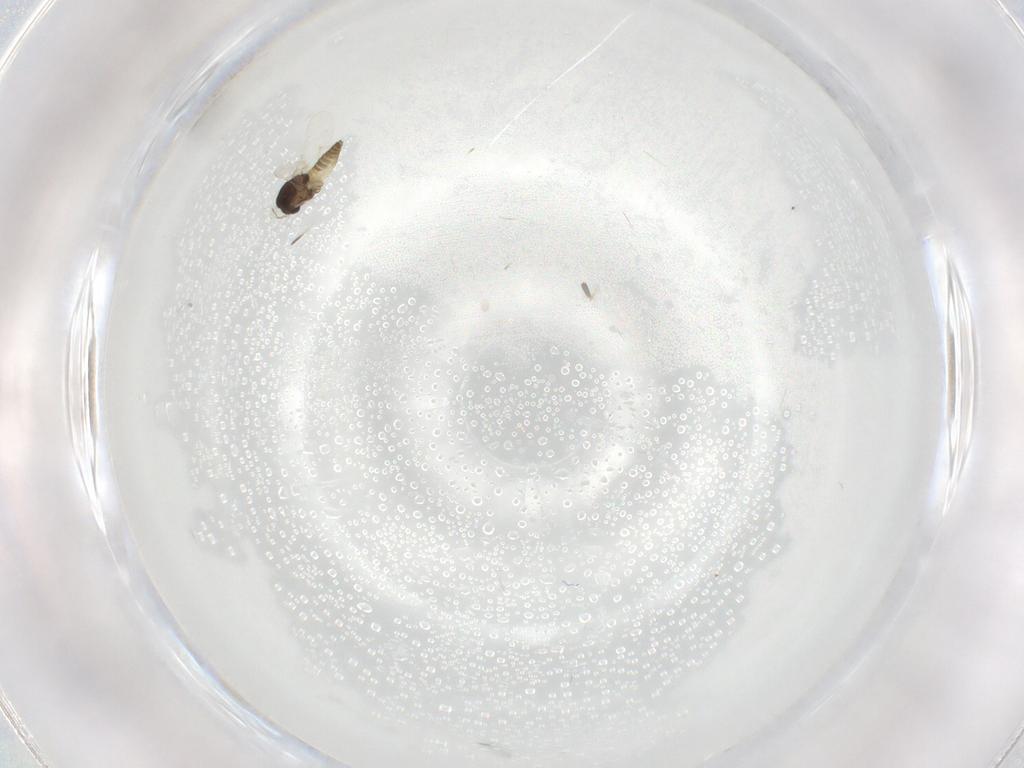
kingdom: Animalia
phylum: Arthropoda
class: Insecta
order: Diptera
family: Chironomidae
